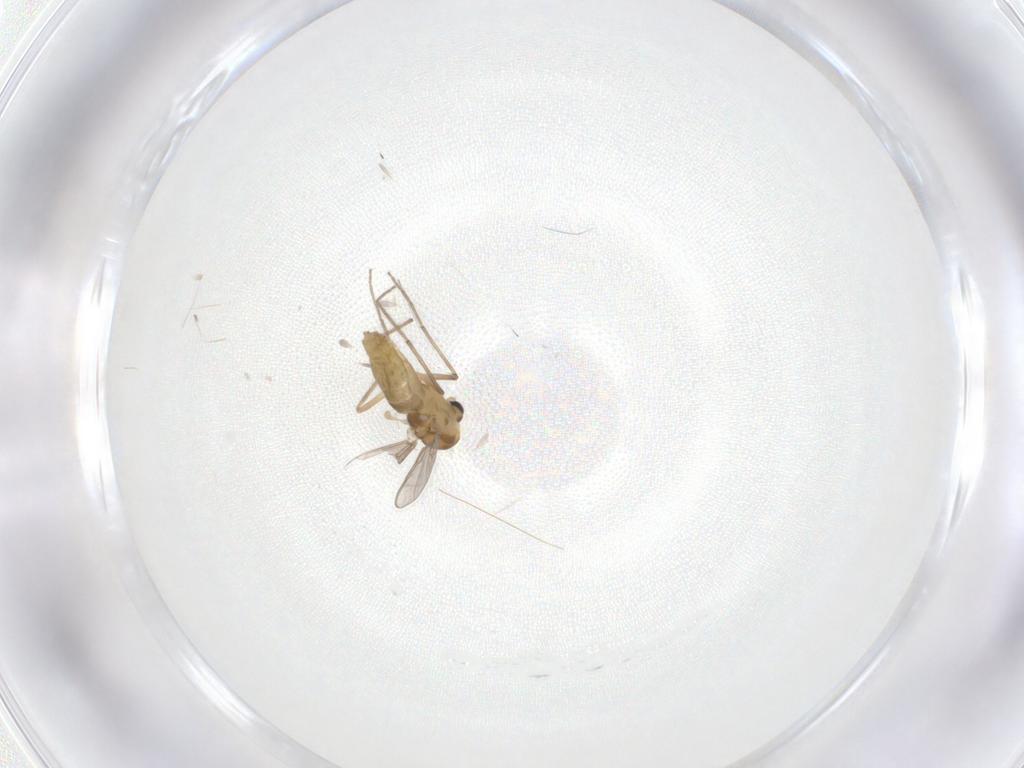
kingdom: Animalia
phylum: Arthropoda
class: Insecta
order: Diptera
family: Chironomidae
